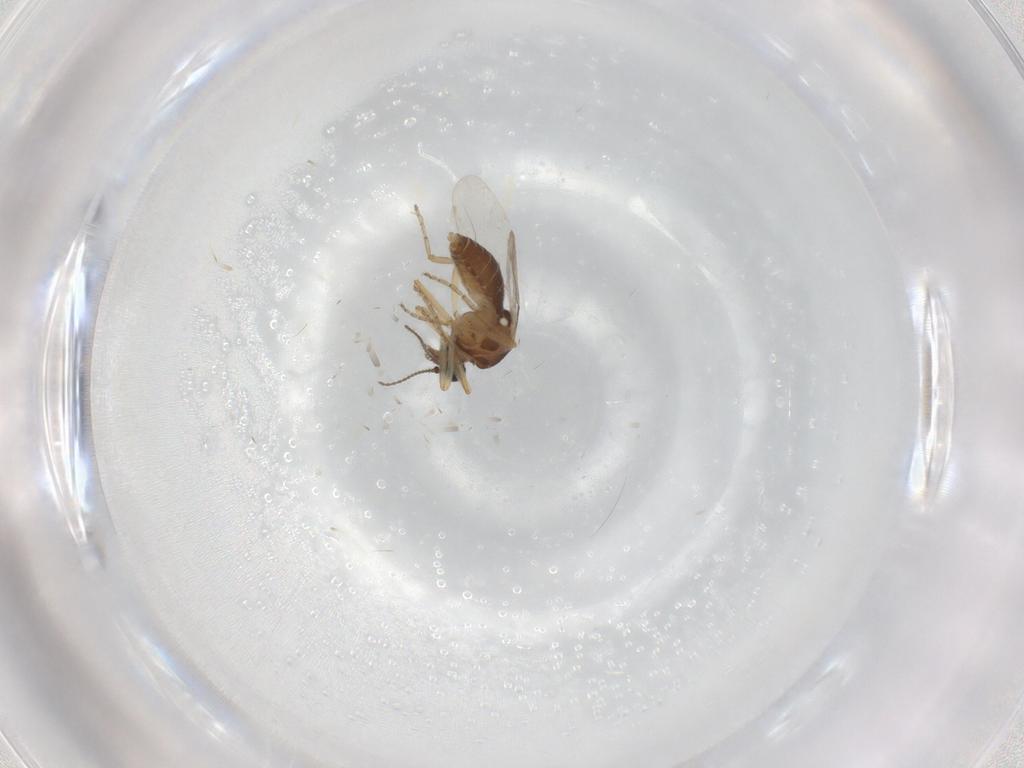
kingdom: Animalia
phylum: Arthropoda
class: Insecta
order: Diptera
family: Ceratopogonidae
